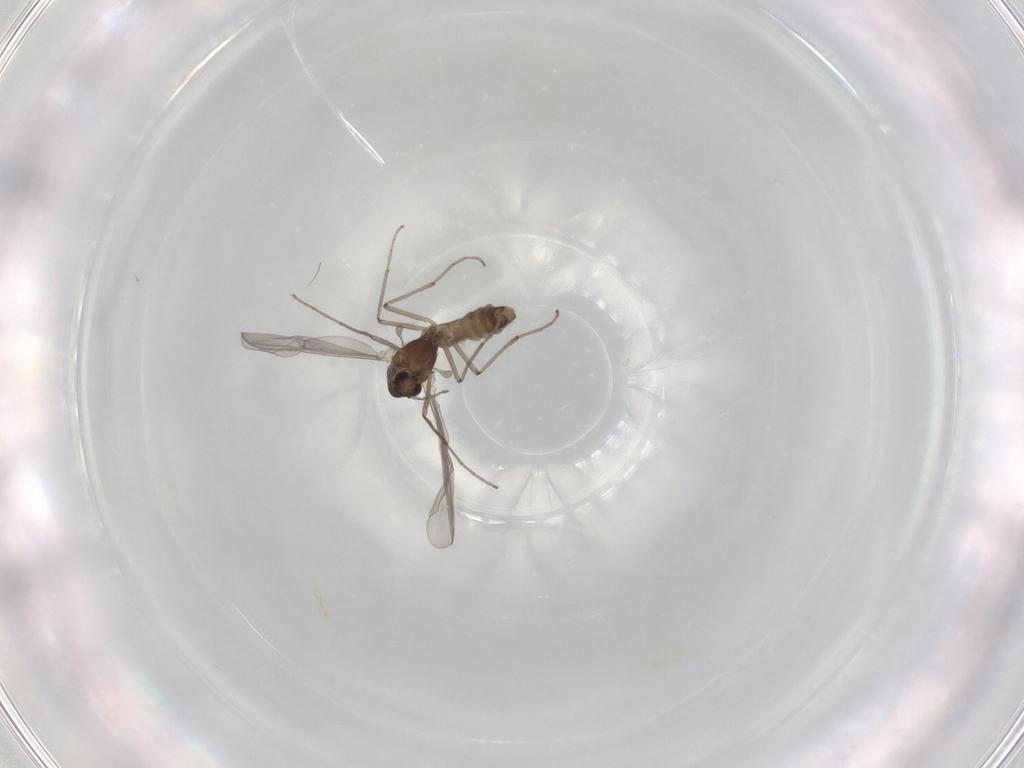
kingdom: Animalia
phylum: Arthropoda
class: Insecta
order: Diptera
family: Chironomidae
